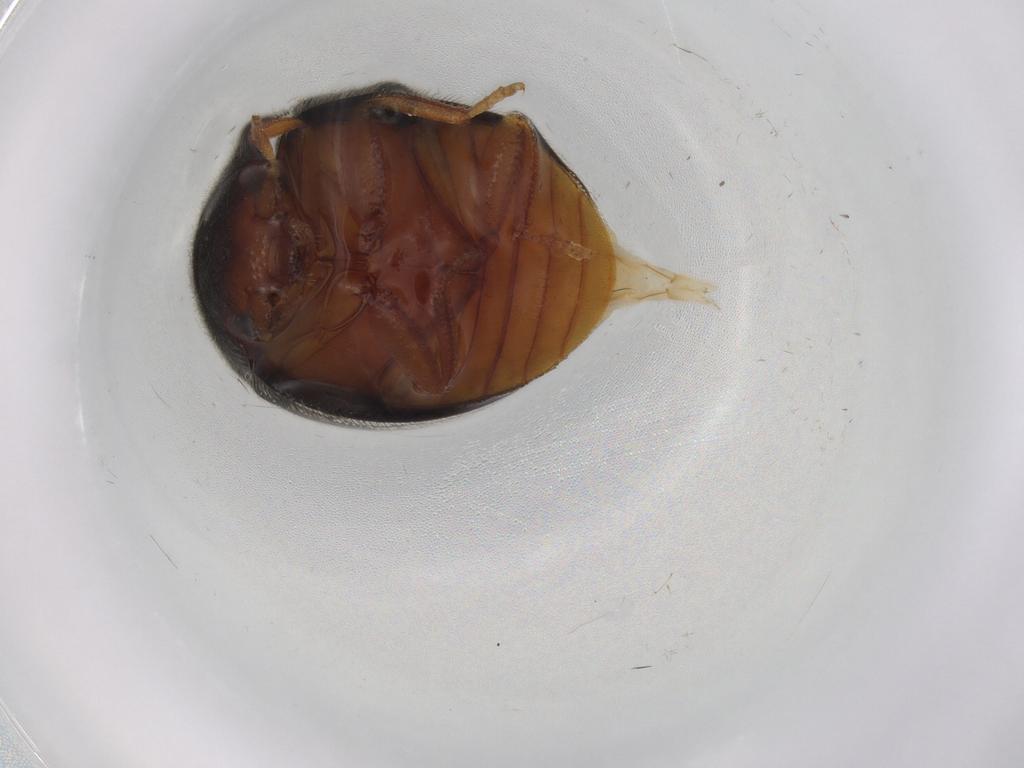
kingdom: Animalia
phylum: Arthropoda
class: Insecta
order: Coleoptera
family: Scirtidae
